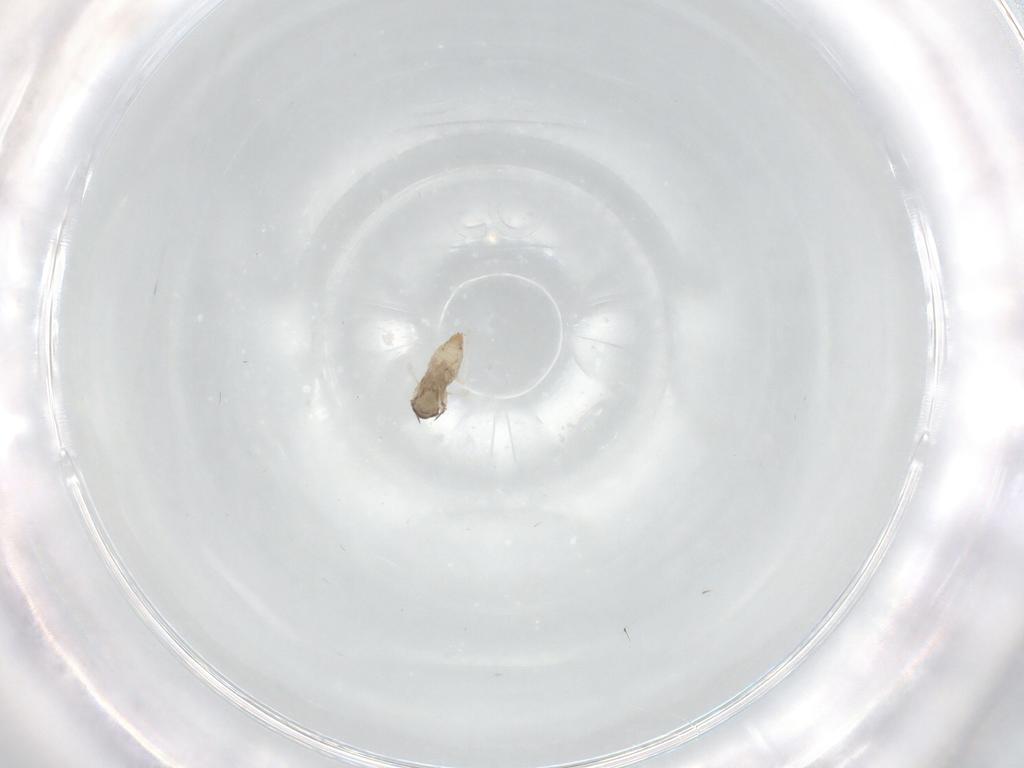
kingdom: Animalia
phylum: Arthropoda
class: Insecta
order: Diptera
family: Cecidomyiidae
